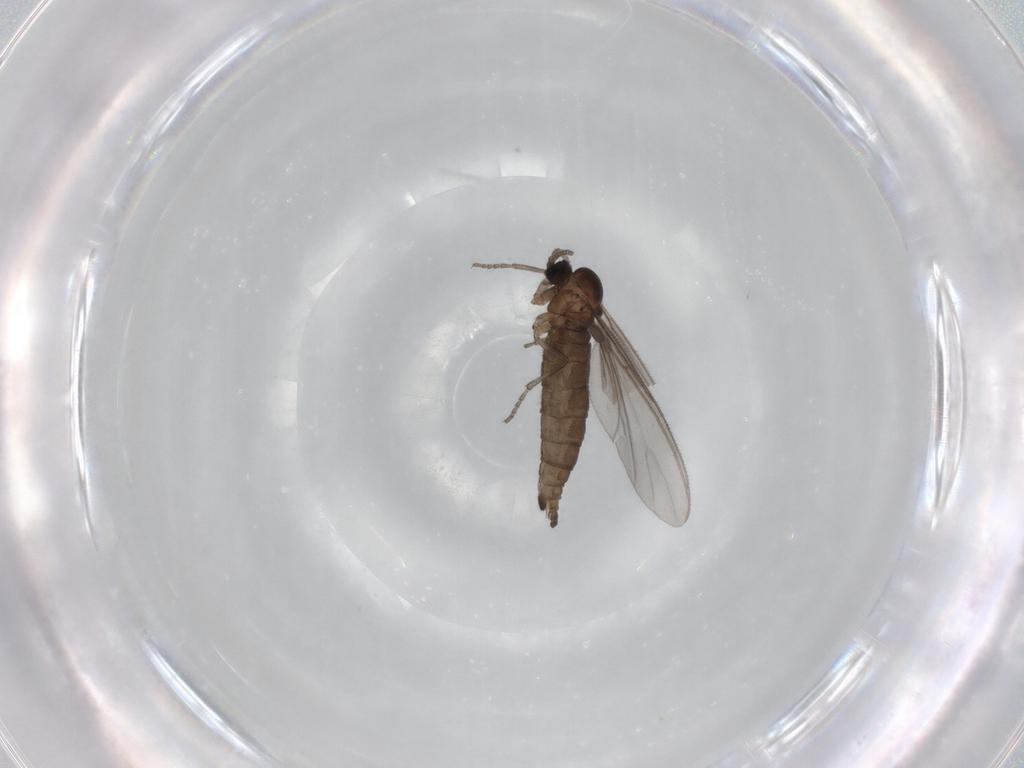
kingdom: Animalia
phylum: Arthropoda
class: Insecta
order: Diptera
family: Sciaridae
